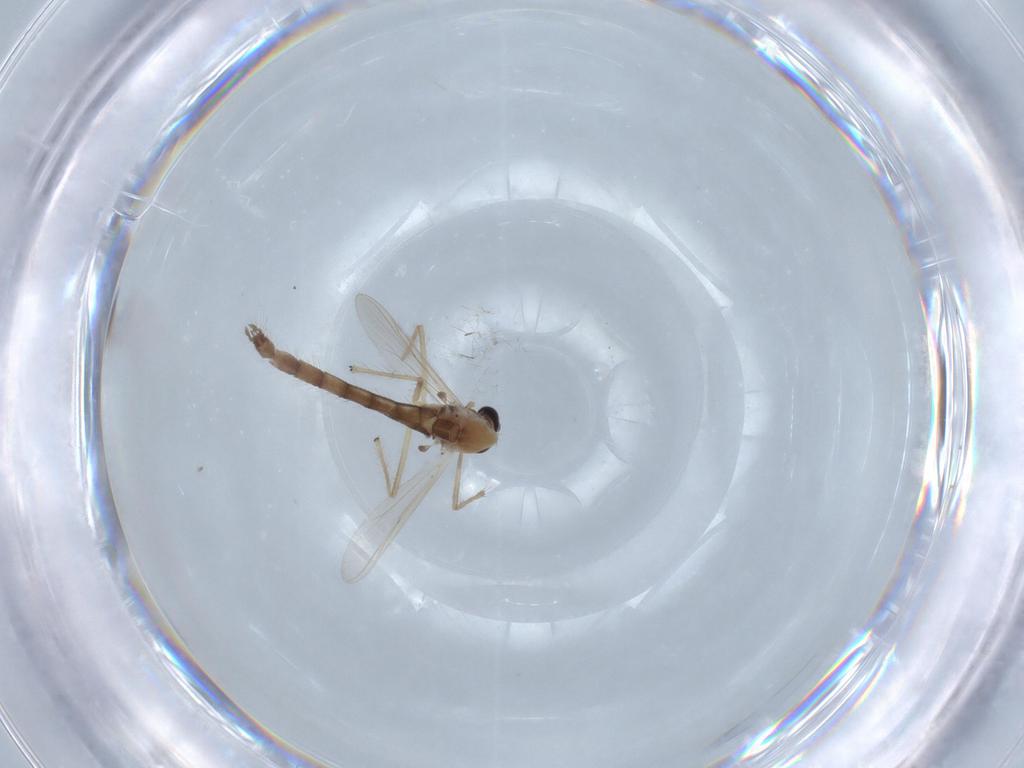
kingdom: Animalia
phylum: Arthropoda
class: Insecta
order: Diptera
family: Chironomidae
